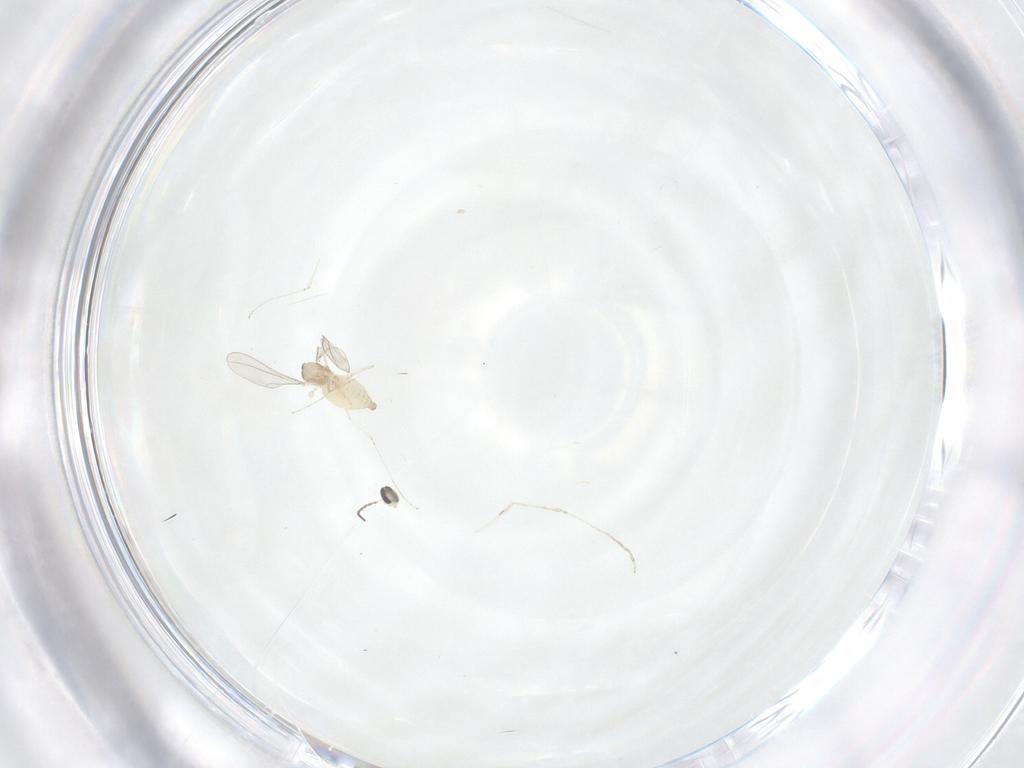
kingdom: Animalia
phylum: Arthropoda
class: Insecta
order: Diptera
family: Cecidomyiidae
